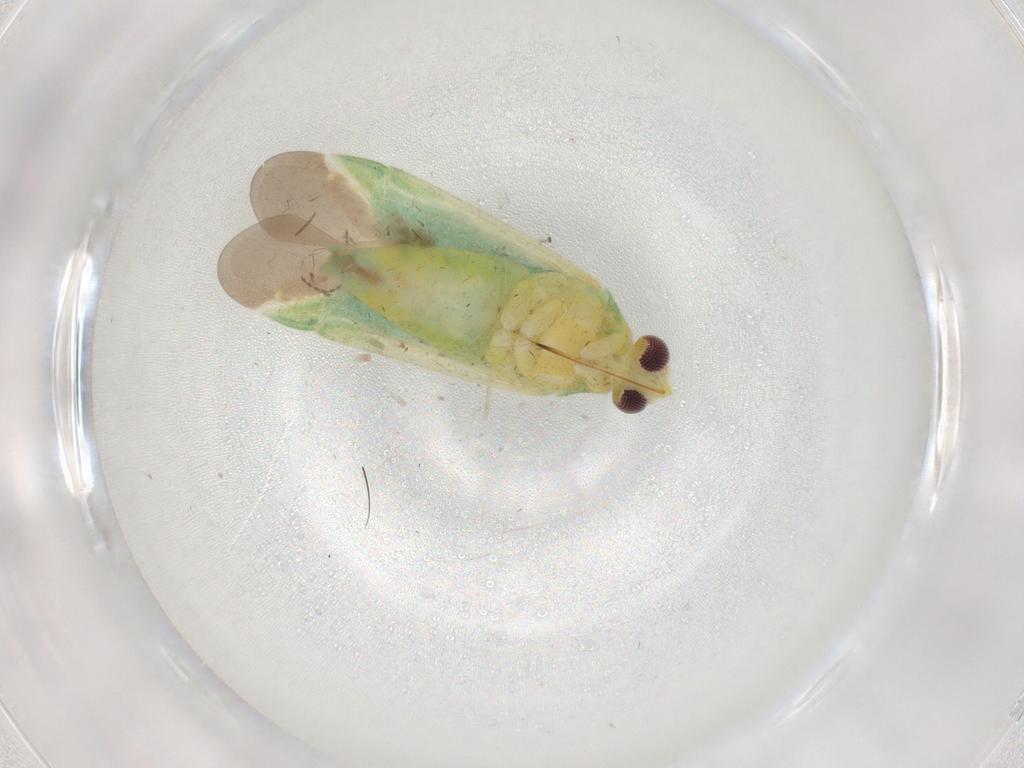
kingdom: Animalia
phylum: Arthropoda
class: Insecta
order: Hemiptera
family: Miridae
